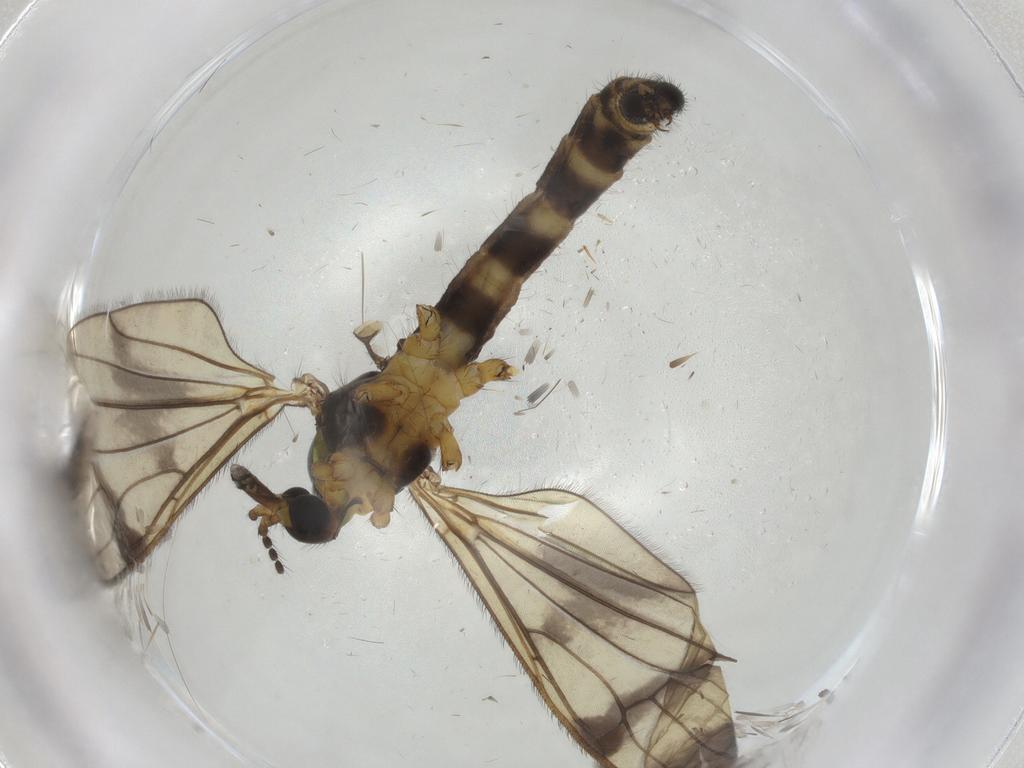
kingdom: Animalia
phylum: Arthropoda
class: Insecta
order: Diptera
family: Limoniidae
